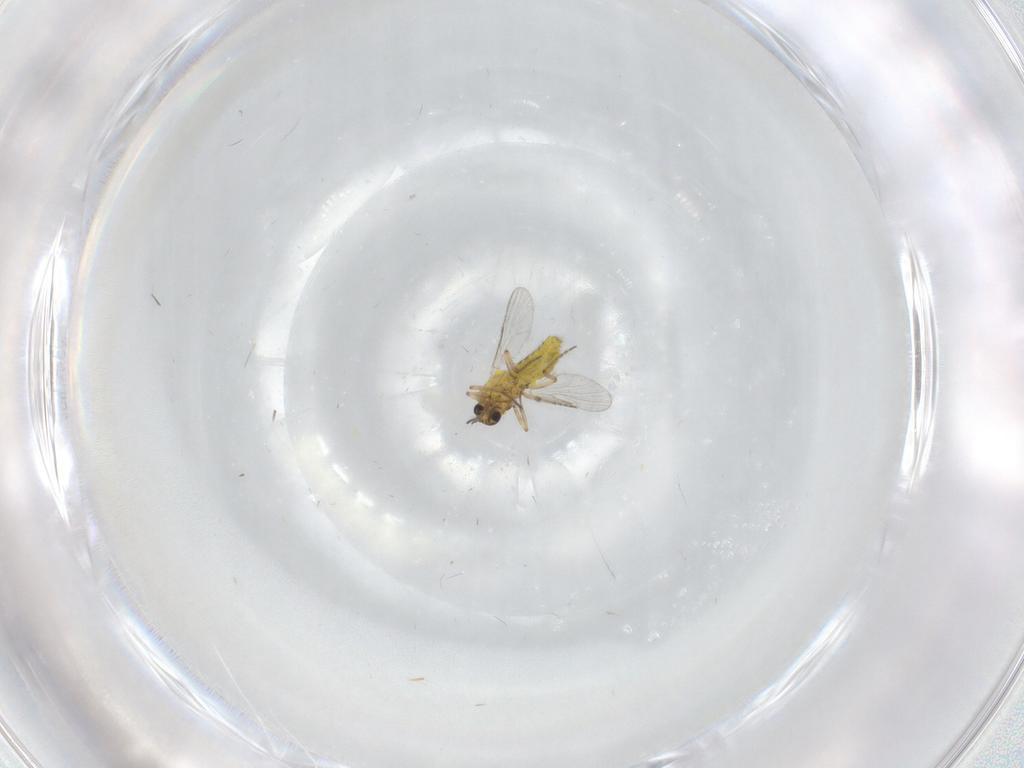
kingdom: Animalia
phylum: Arthropoda
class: Insecta
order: Diptera
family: Ceratopogonidae
